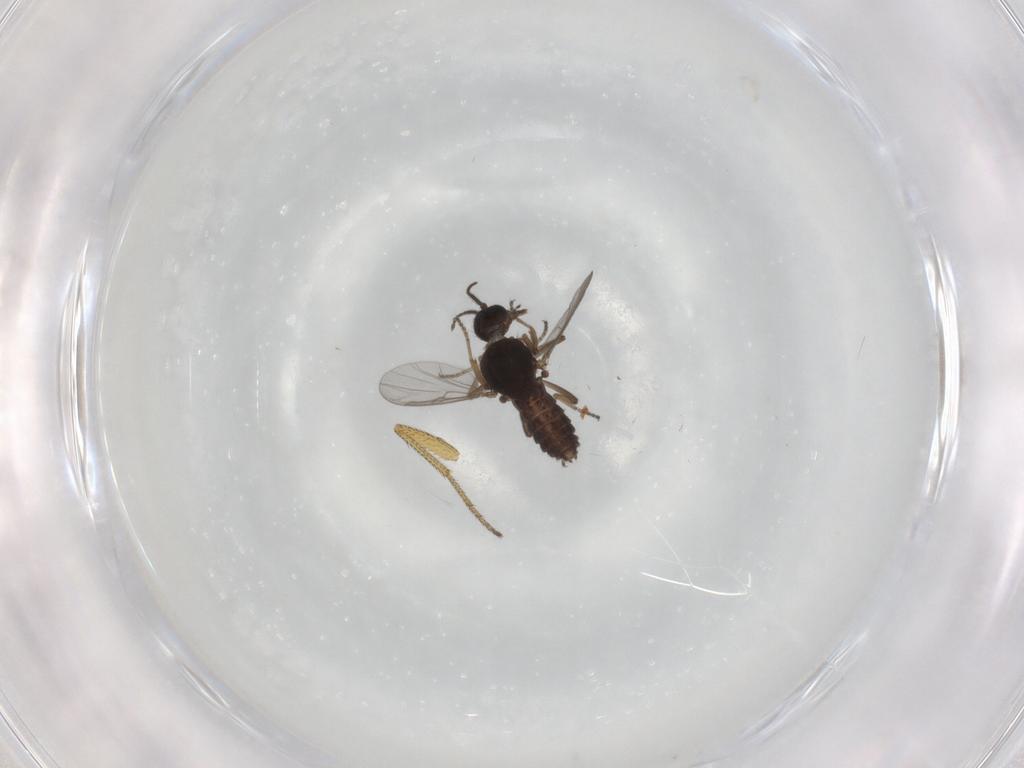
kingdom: Animalia
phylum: Arthropoda
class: Insecta
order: Diptera
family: Ceratopogonidae
